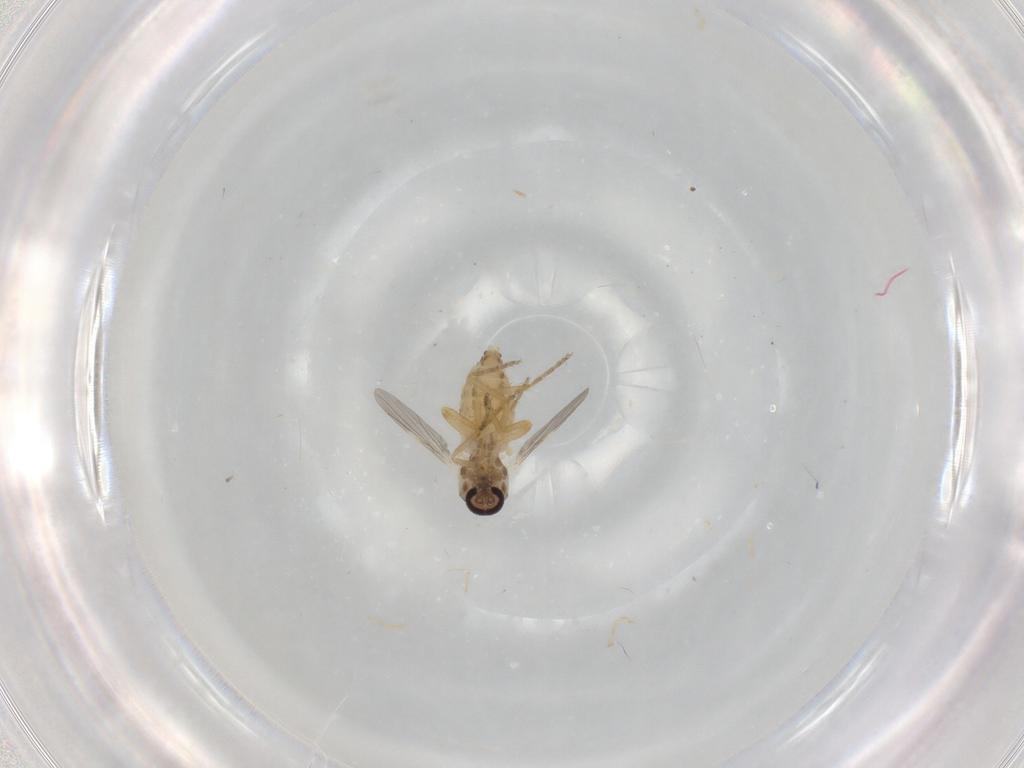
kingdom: Animalia
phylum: Arthropoda
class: Insecta
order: Diptera
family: Ceratopogonidae
